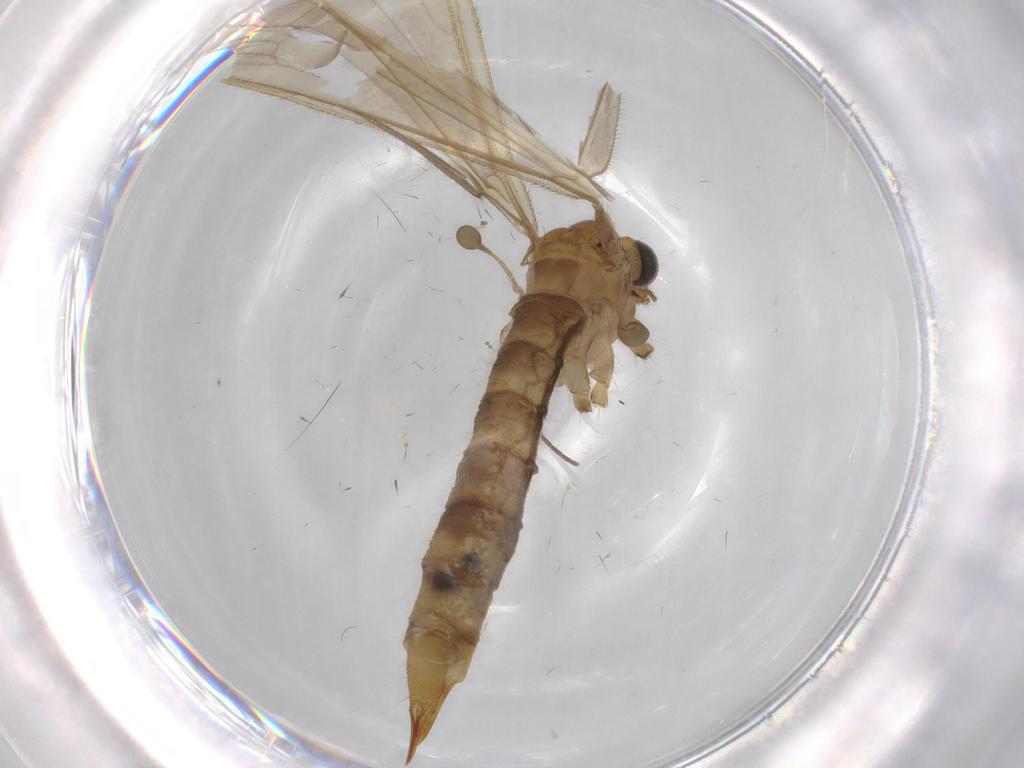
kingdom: Animalia
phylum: Arthropoda
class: Insecta
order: Diptera
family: Chironomidae
